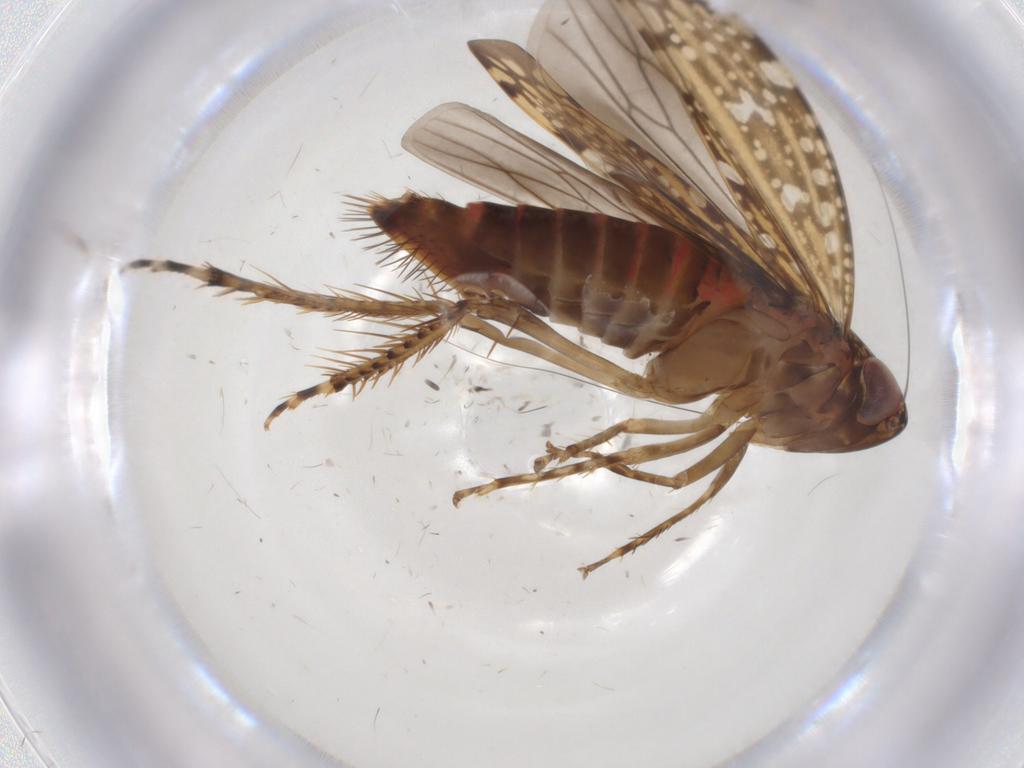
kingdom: Animalia
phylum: Arthropoda
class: Insecta
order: Hemiptera
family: Cicadellidae
